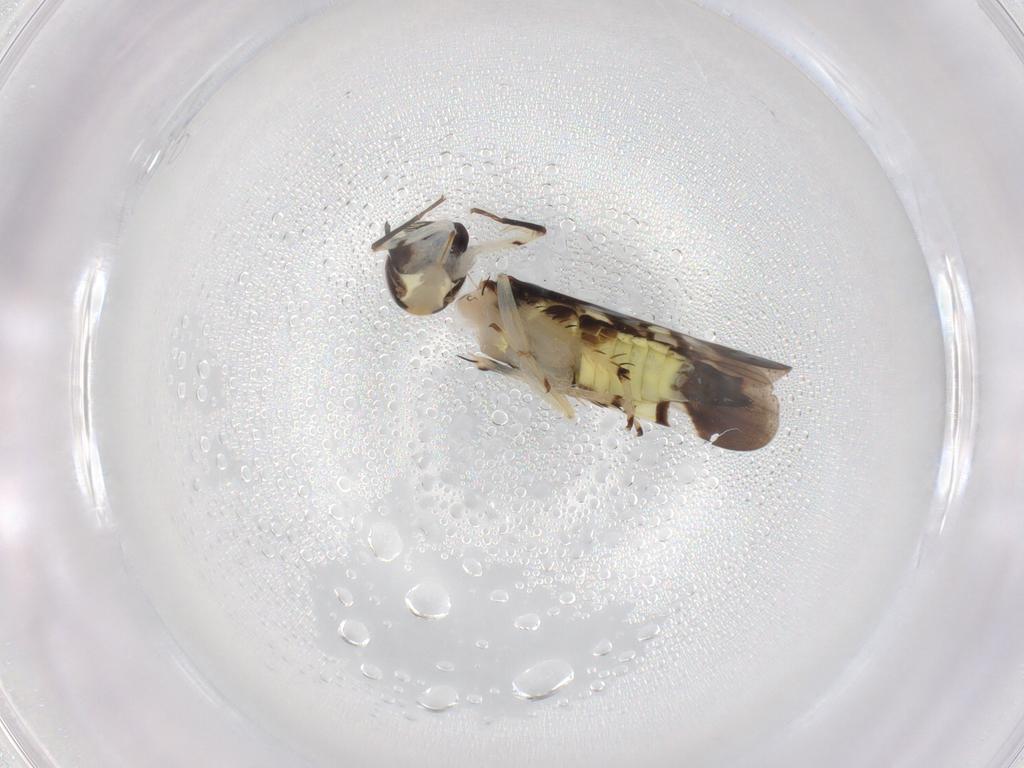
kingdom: Animalia
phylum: Arthropoda
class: Insecta
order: Hemiptera
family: Cicadellidae
